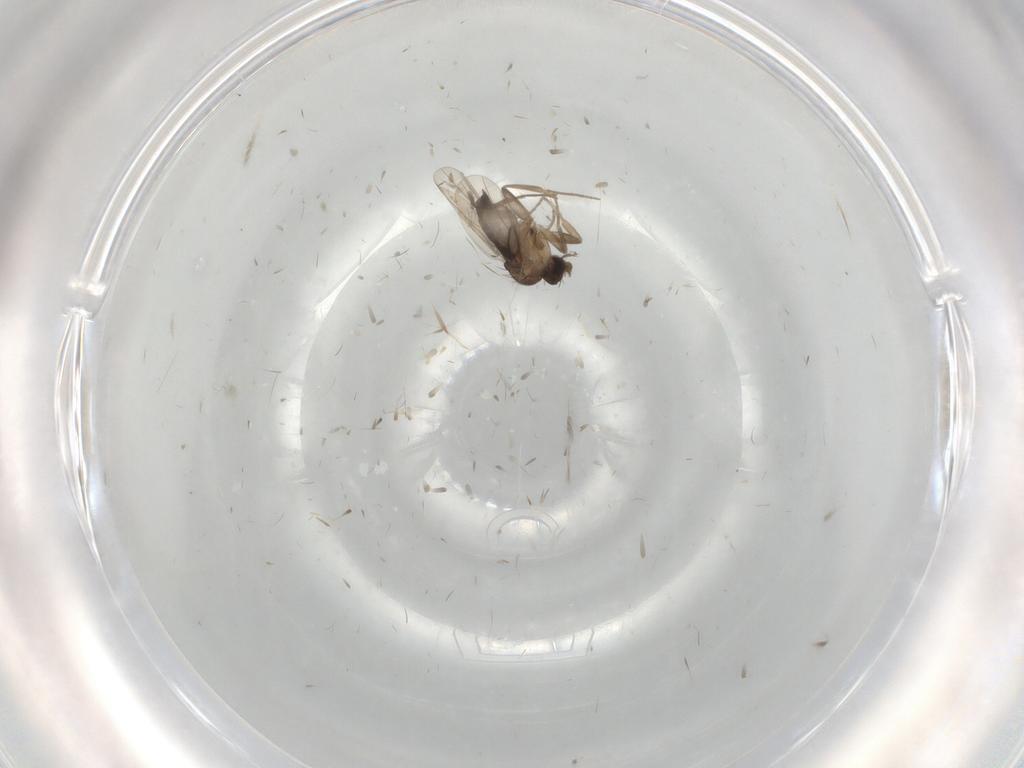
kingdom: Animalia
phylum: Arthropoda
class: Insecta
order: Diptera
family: Phoridae
